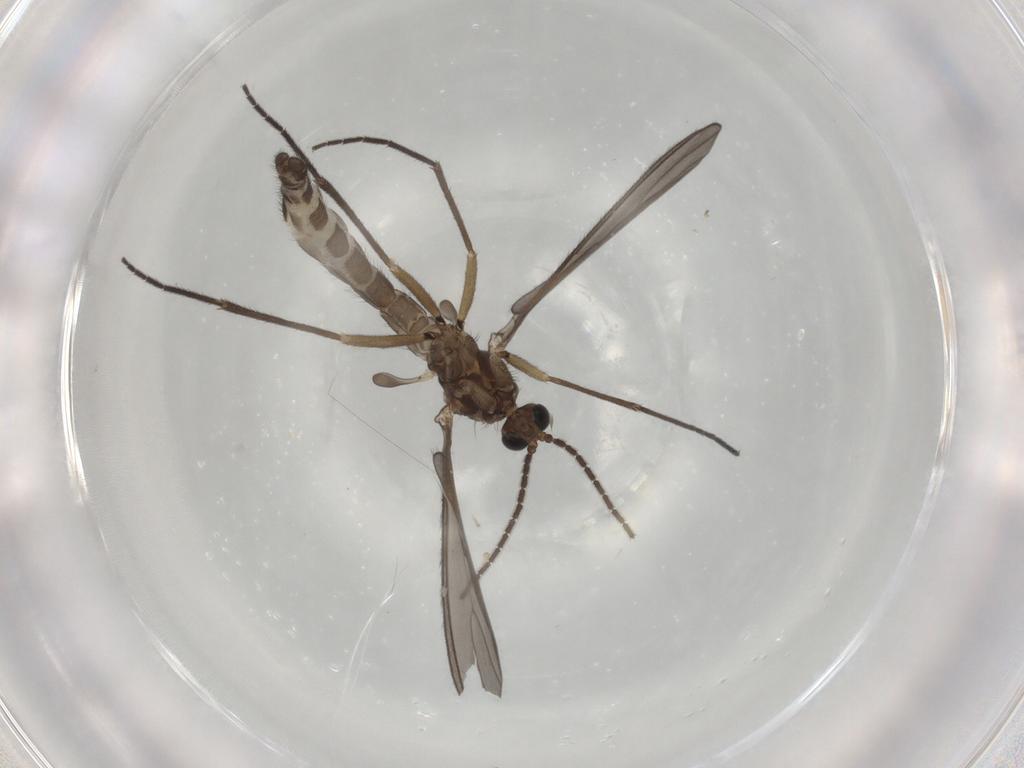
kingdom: Animalia
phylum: Arthropoda
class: Insecta
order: Diptera
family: Sciaridae
